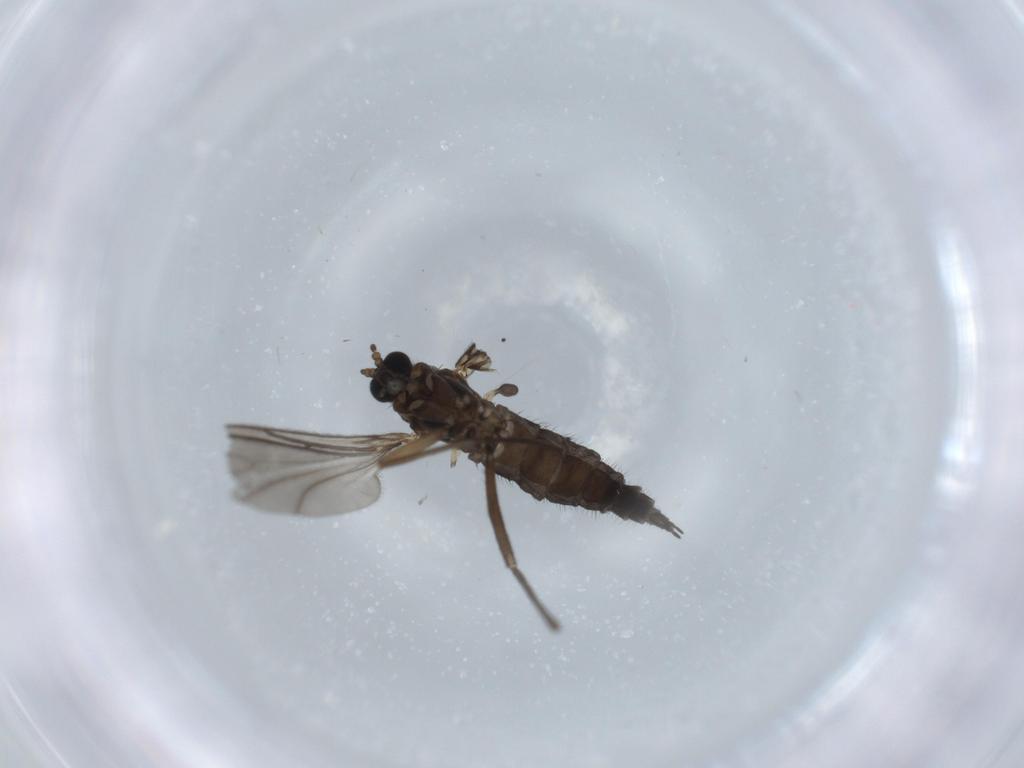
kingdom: Animalia
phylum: Arthropoda
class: Insecta
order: Diptera
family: Sciaridae
